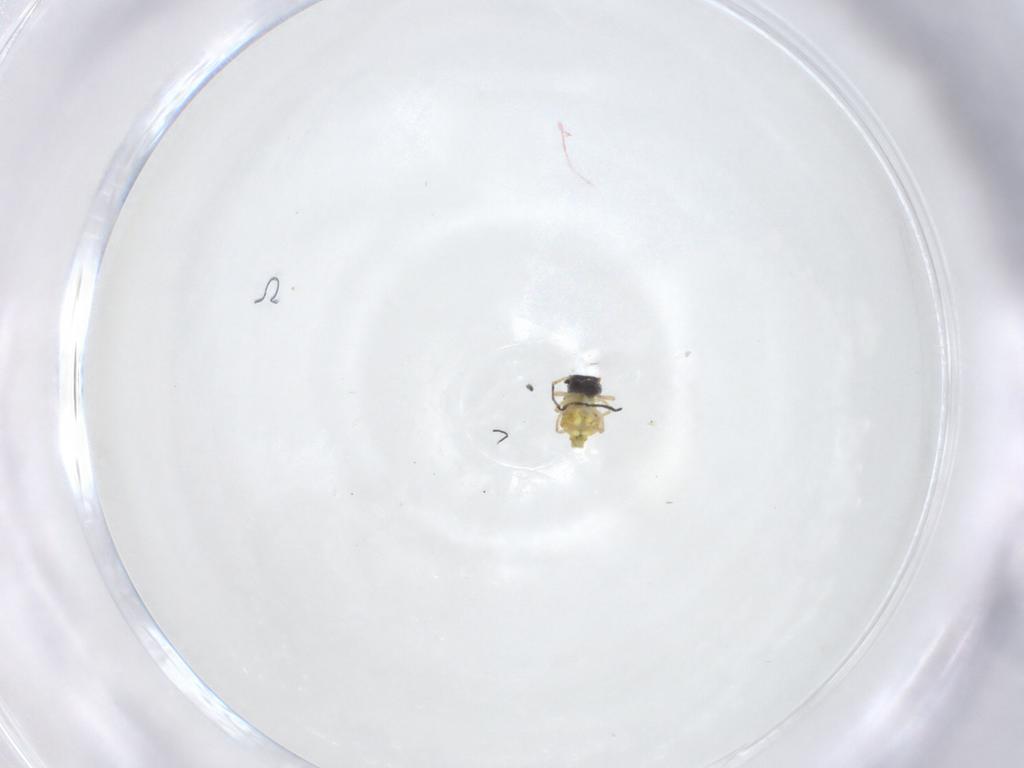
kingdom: Animalia
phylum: Arthropoda
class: Collembola
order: Symphypleona
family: Bourletiellidae
